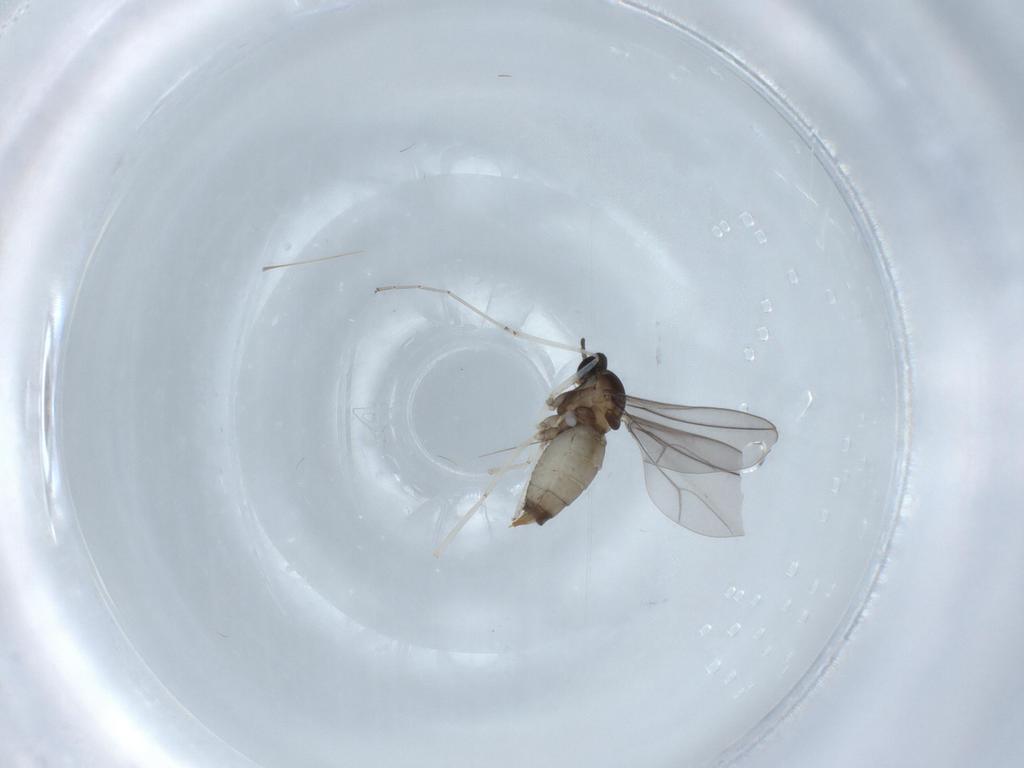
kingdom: Animalia
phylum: Arthropoda
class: Insecta
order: Diptera
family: Cecidomyiidae
